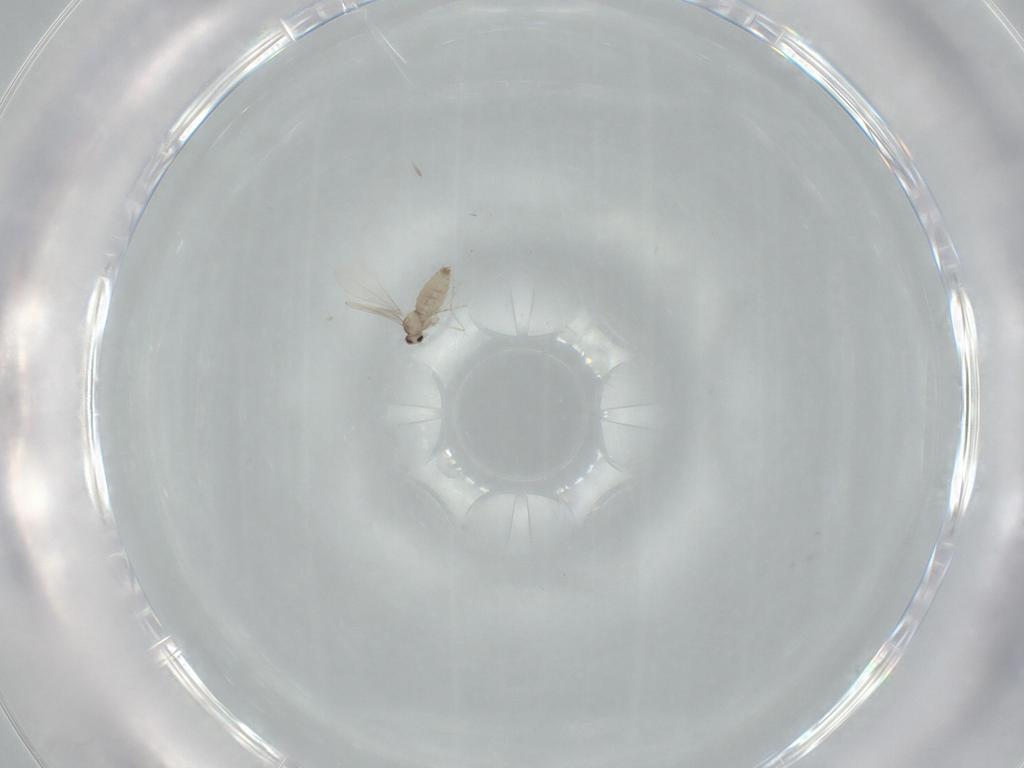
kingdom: Animalia
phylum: Arthropoda
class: Insecta
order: Diptera
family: Cecidomyiidae
